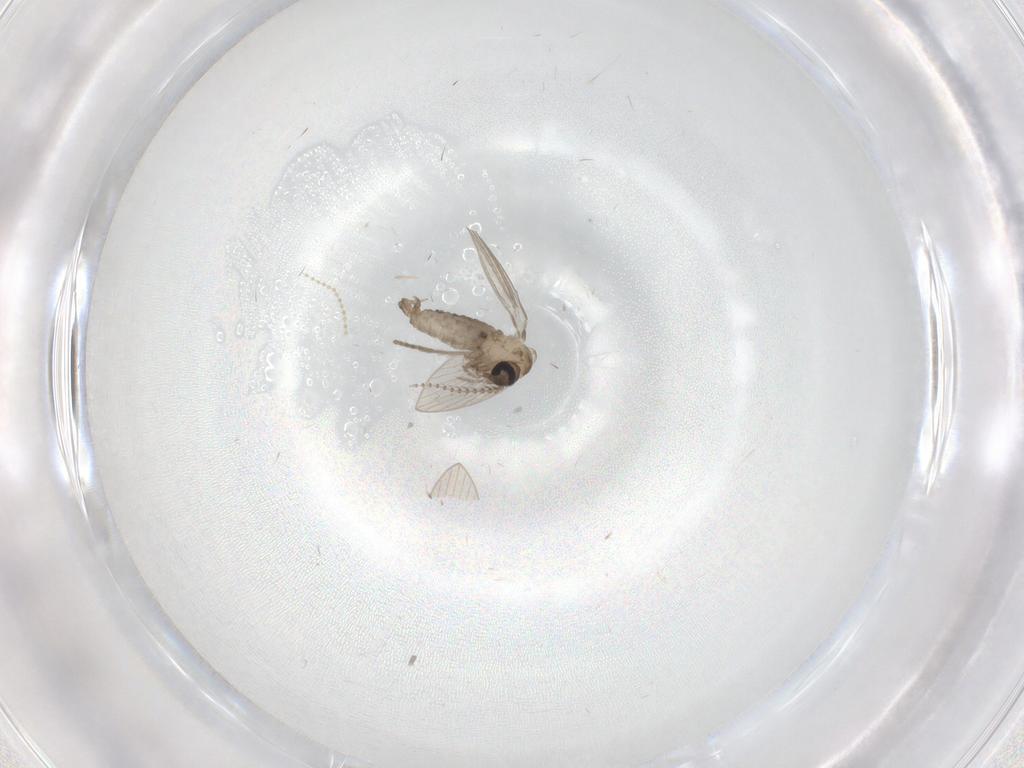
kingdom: Animalia
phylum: Arthropoda
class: Insecta
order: Diptera
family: Psychodidae
